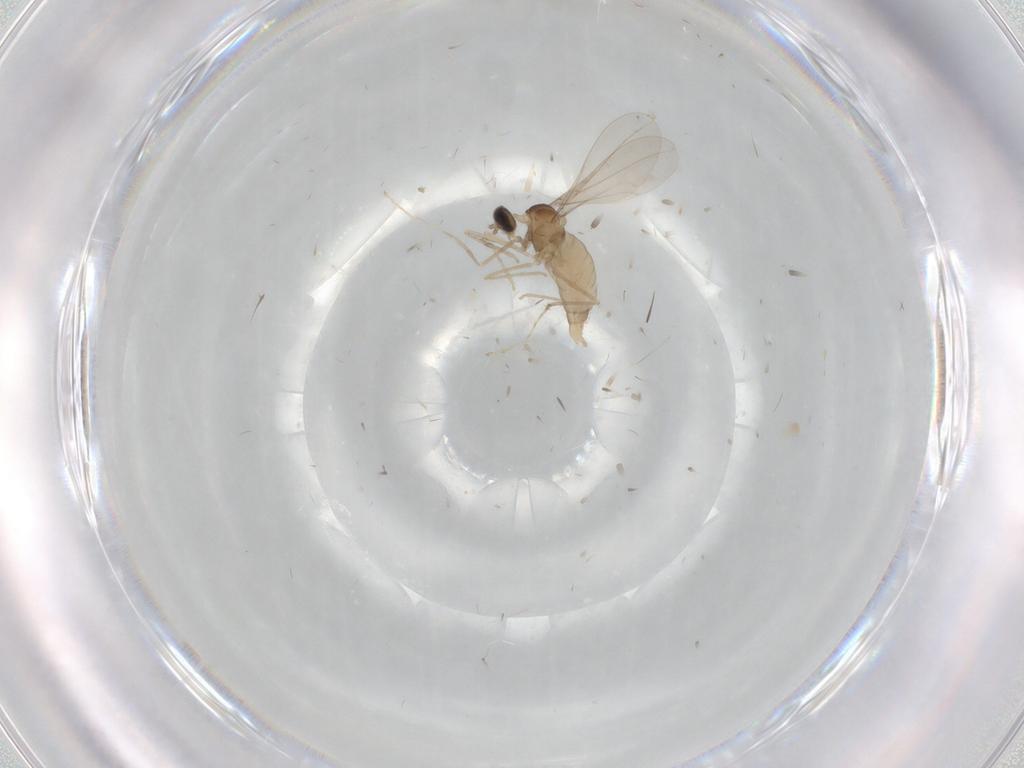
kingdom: Animalia
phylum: Arthropoda
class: Insecta
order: Diptera
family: Cecidomyiidae
